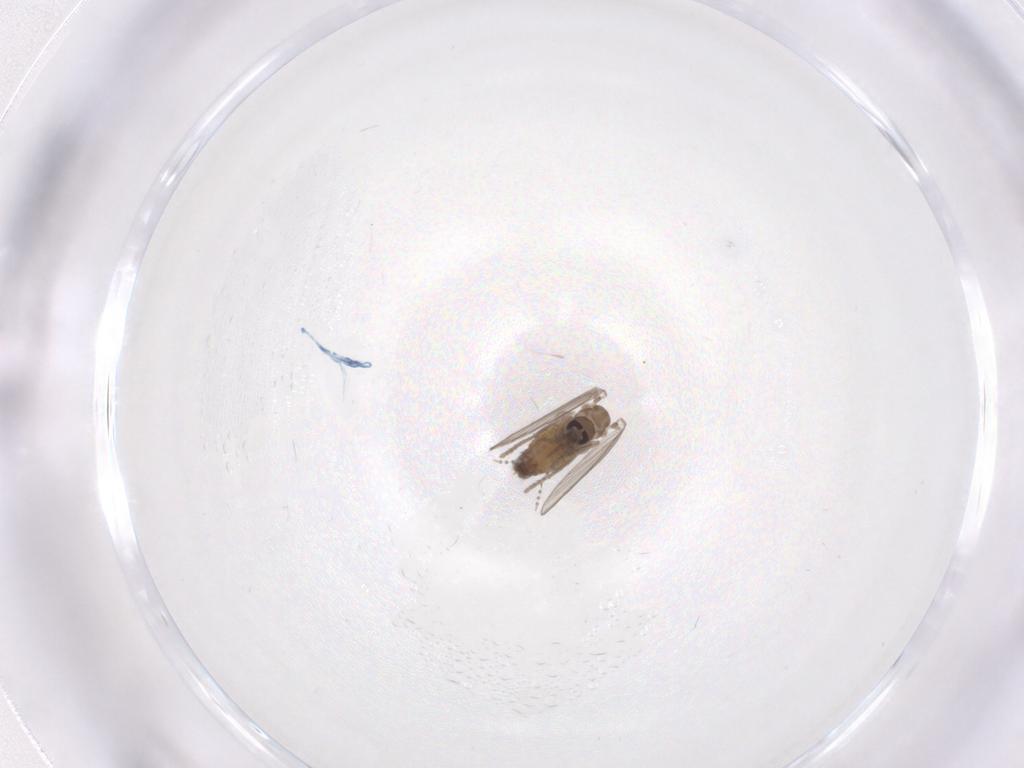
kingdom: Animalia
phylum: Arthropoda
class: Insecta
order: Diptera
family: Psychodidae
